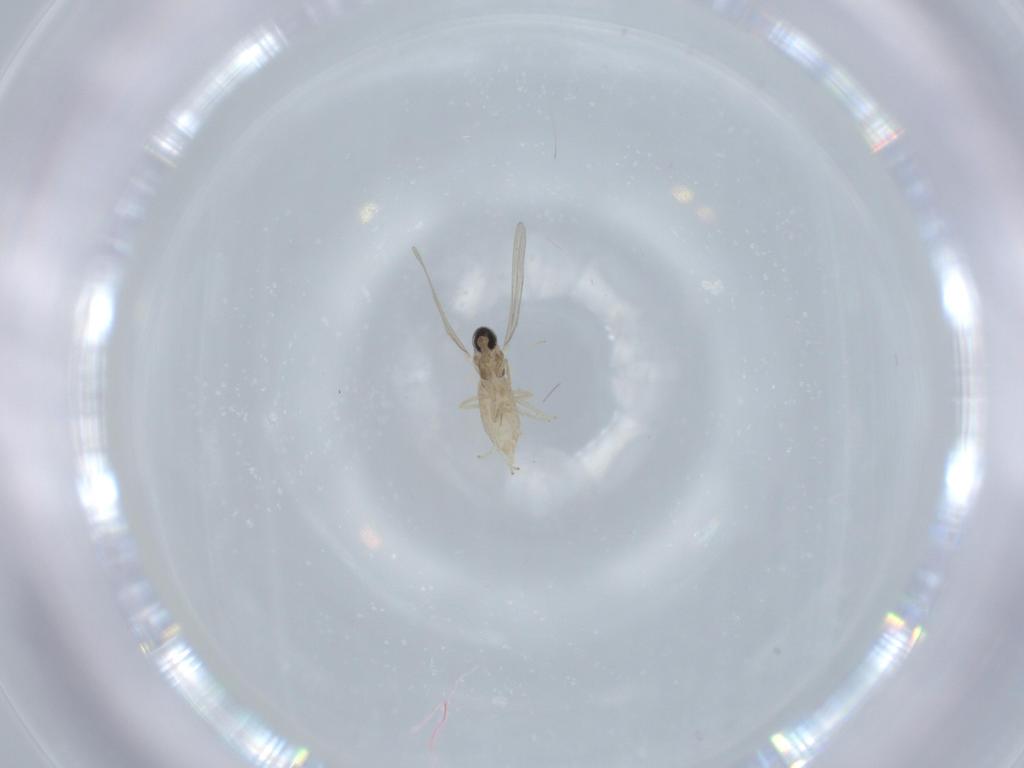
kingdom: Animalia
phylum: Arthropoda
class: Insecta
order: Diptera
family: Cecidomyiidae
